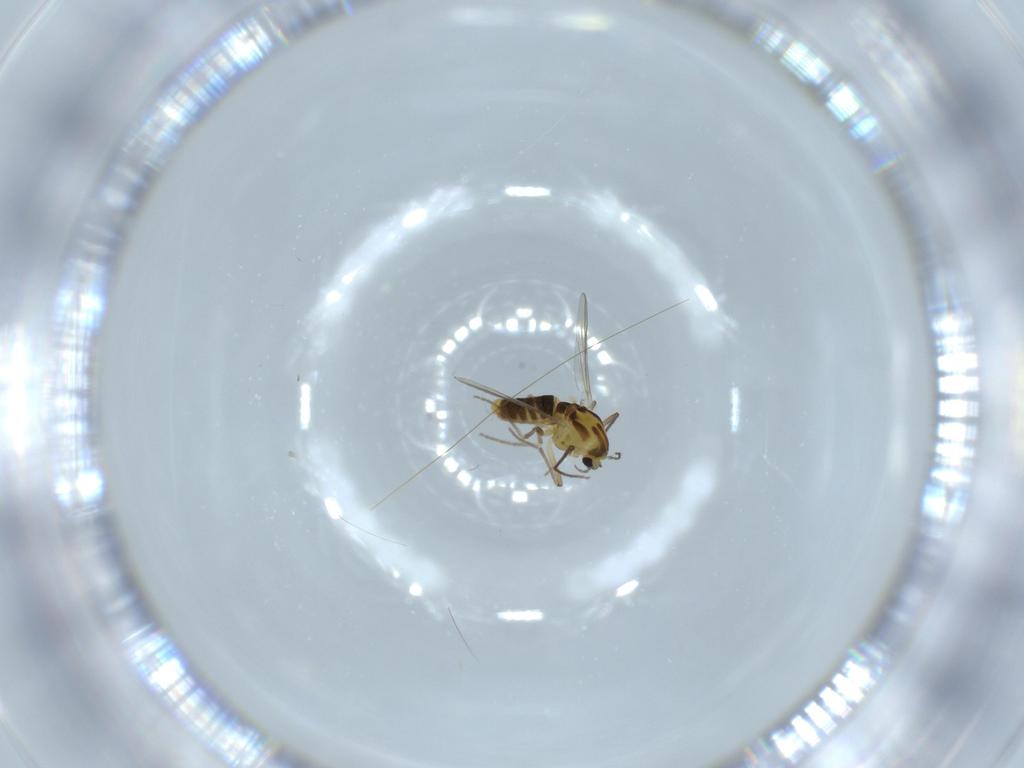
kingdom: Animalia
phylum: Arthropoda
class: Insecta
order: Diptera
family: Chironomidae
